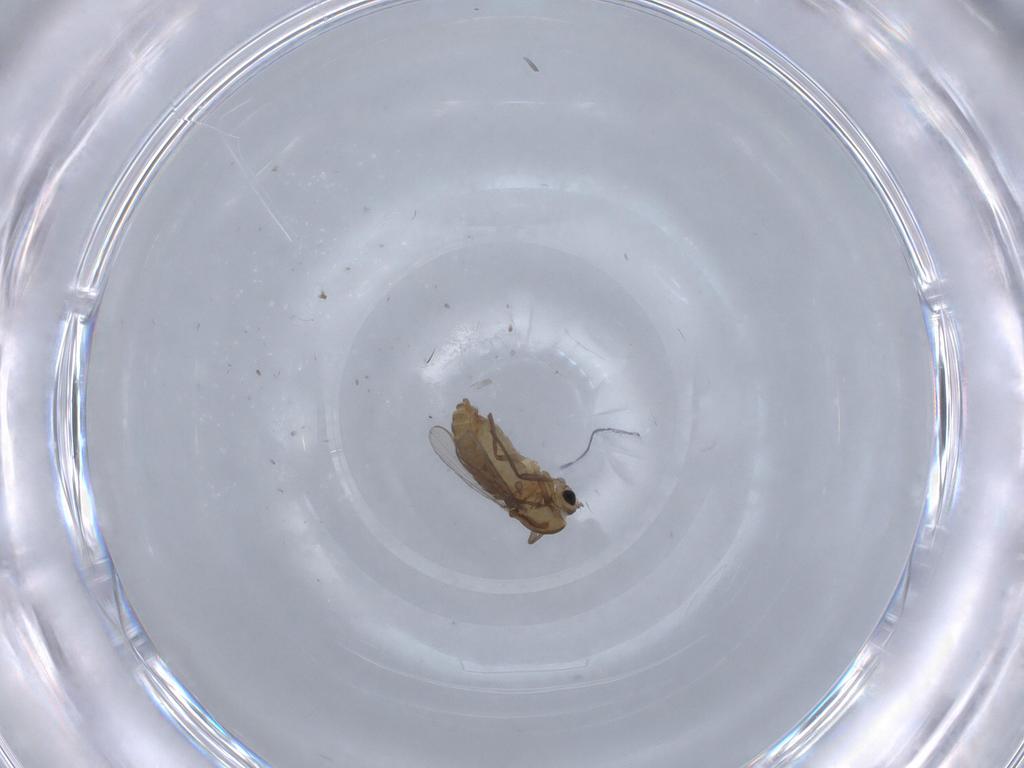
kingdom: Animalia
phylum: Arthropoda
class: Insecta
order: Diptera
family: Chironomidae
